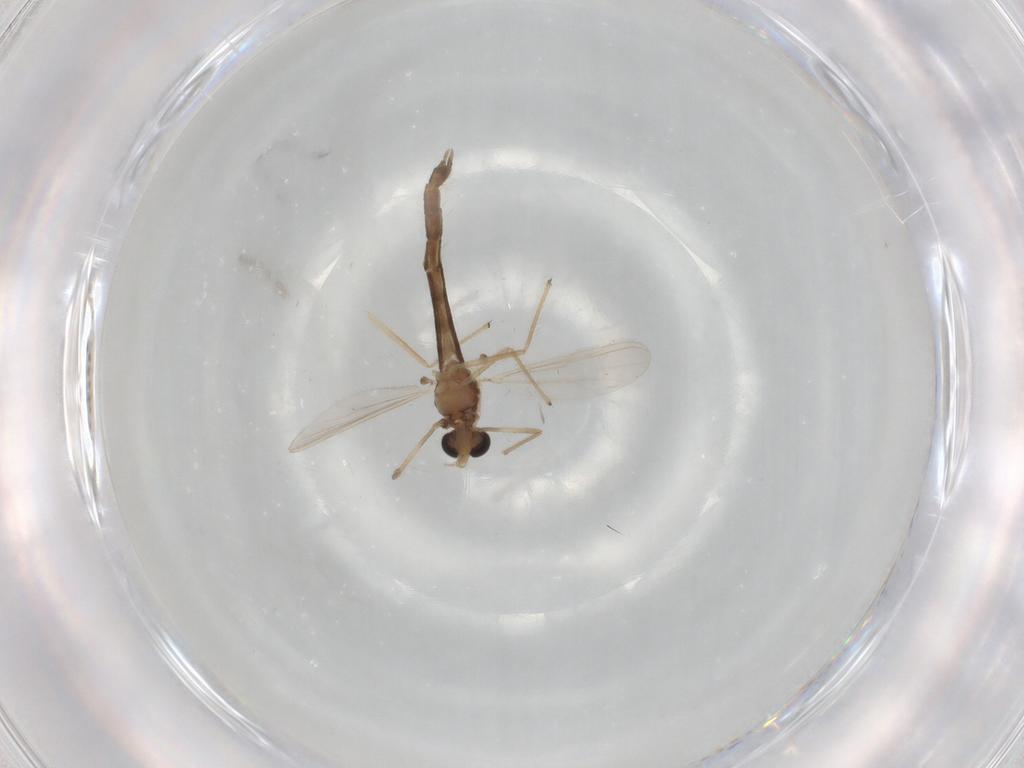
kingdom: Animalia
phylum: Arthropoda
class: Insecta
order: Diptera
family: Chironomidae
